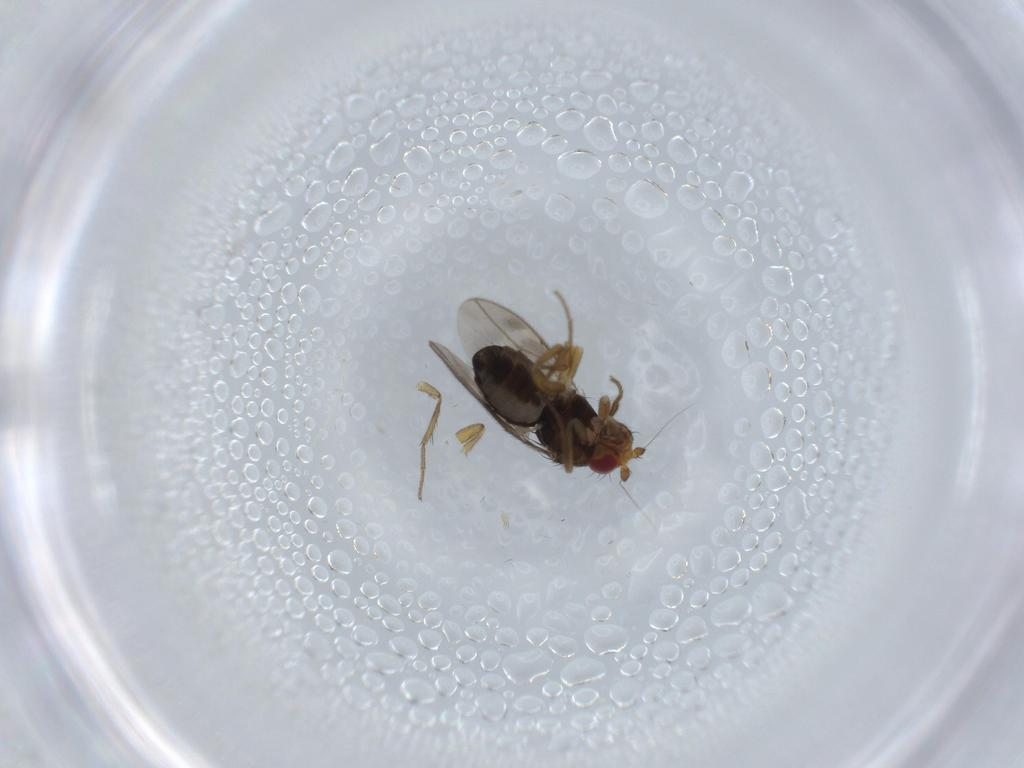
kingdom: Animalia
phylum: Arthropoda
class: Insecta
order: Diptera
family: Sphaeroceridae
